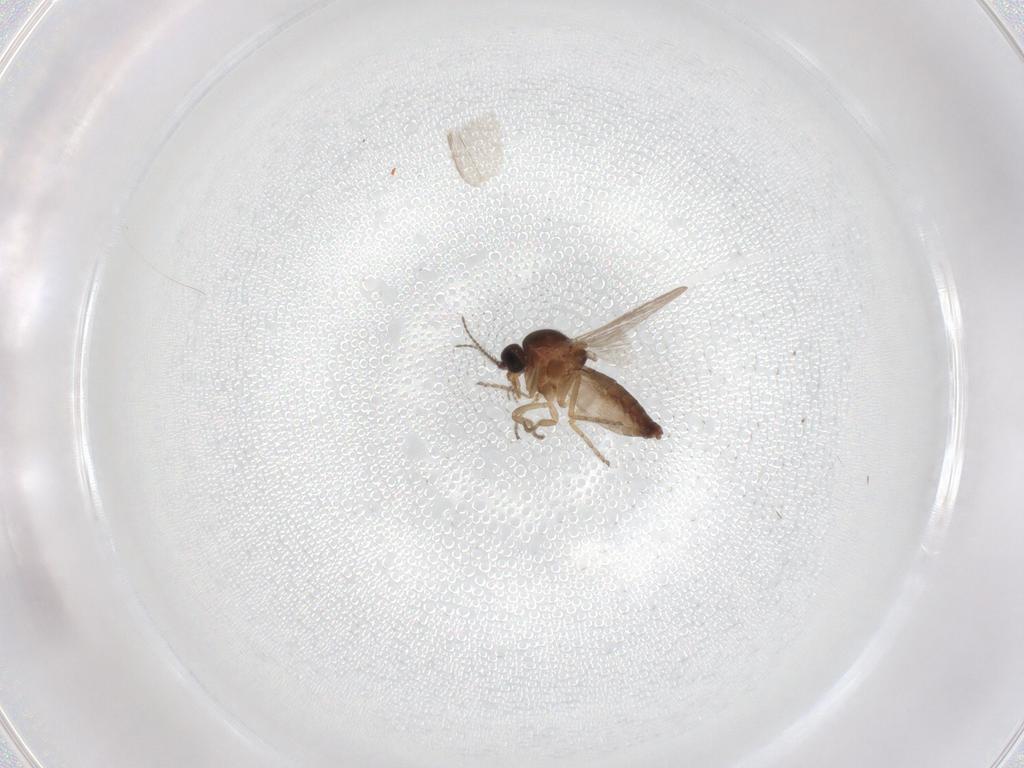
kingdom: Animalia
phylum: Arthropoda
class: Insecta
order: Diptera
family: Ceratopogonidae
